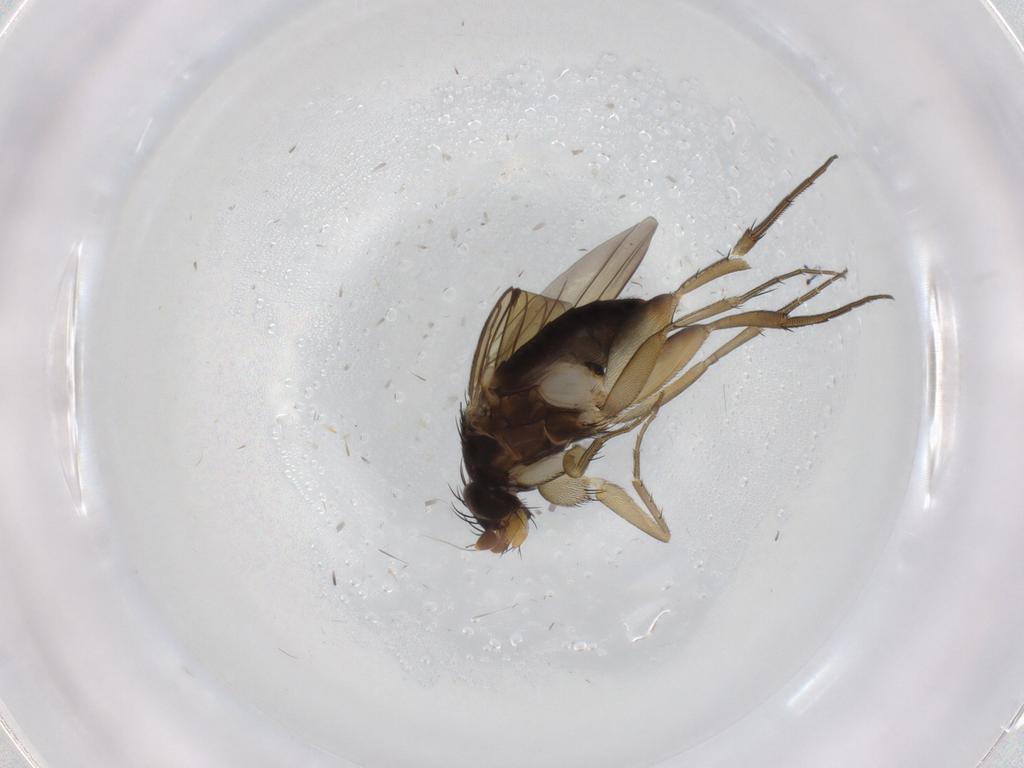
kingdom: Animalia
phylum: Arthropoda
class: Insecta
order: Diptera
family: Phoridae
